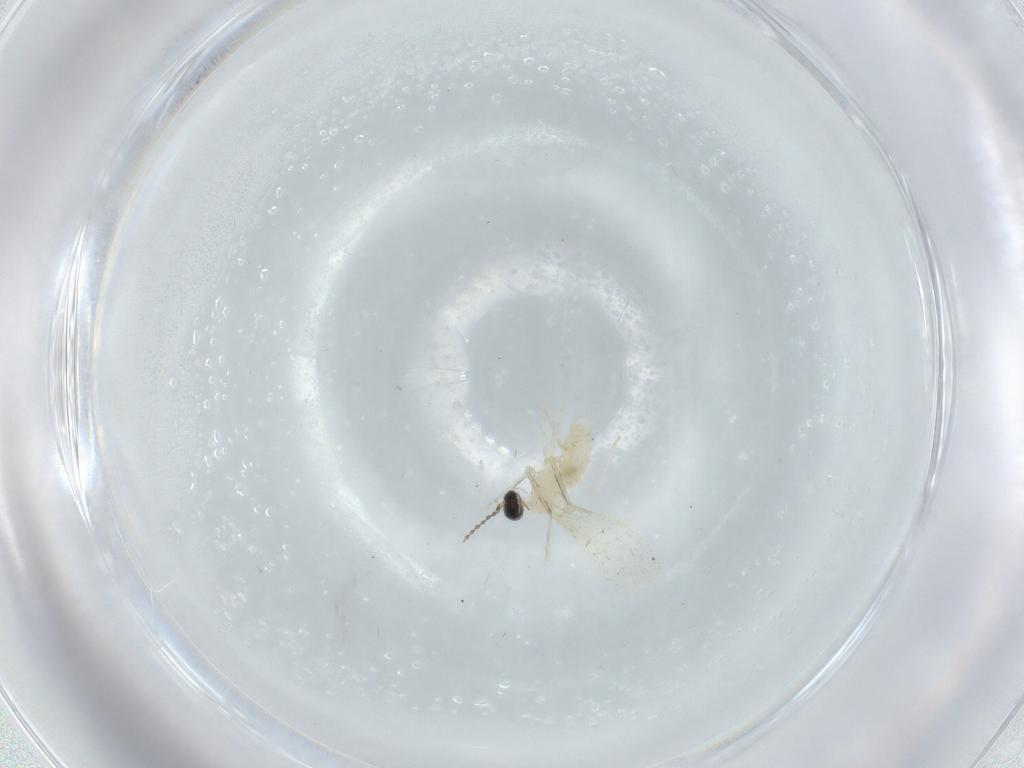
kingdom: Animalia
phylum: Arthropoda
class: Insecta
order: Diptera
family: Cecidomyiidae
